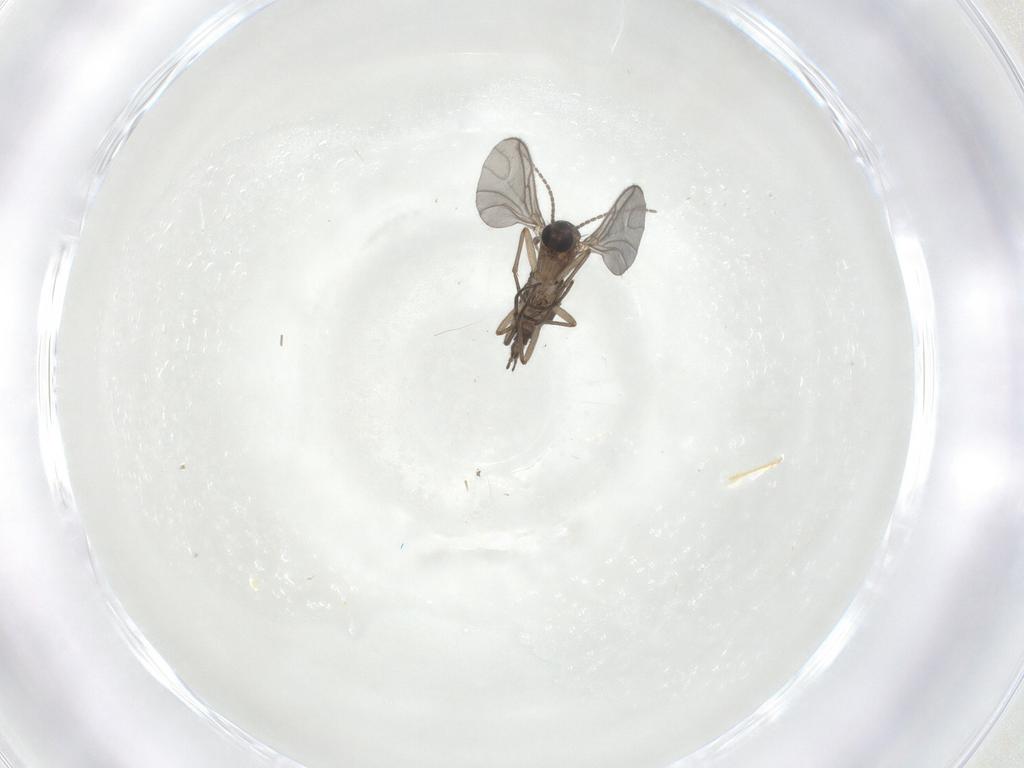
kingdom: Animalia
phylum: Arthropoda
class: Insecta
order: Diptera
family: Sciaridae
